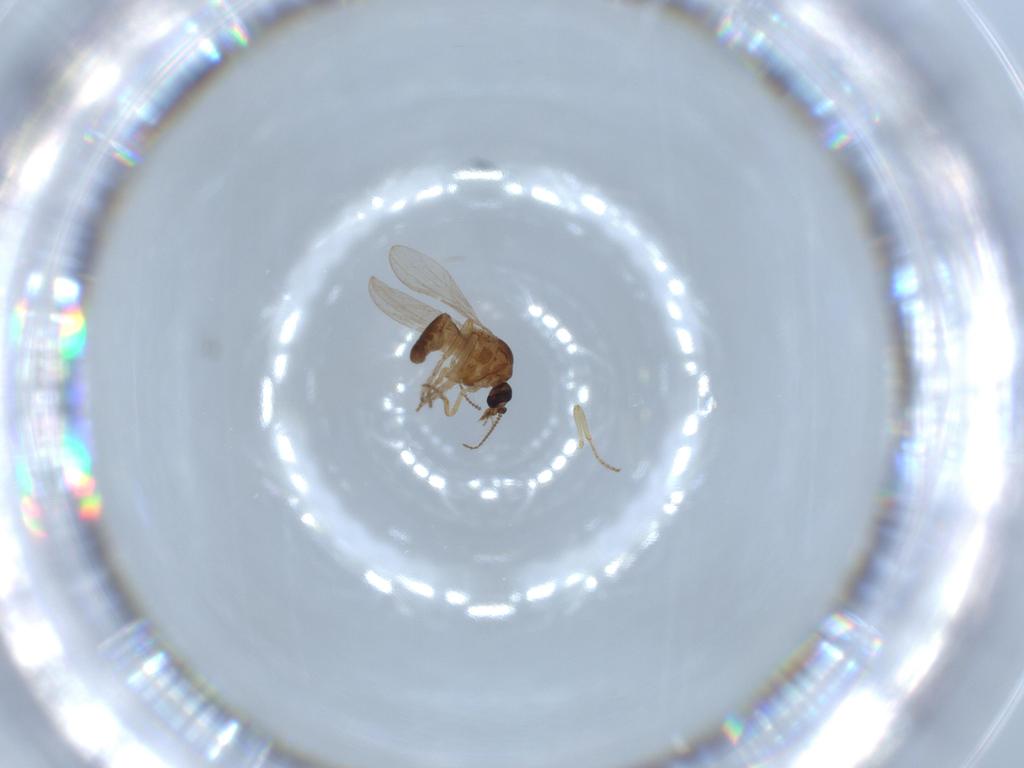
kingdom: Animalia
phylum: Arthropoda
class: Insecta
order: Diptera
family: Ceratopogonidae
